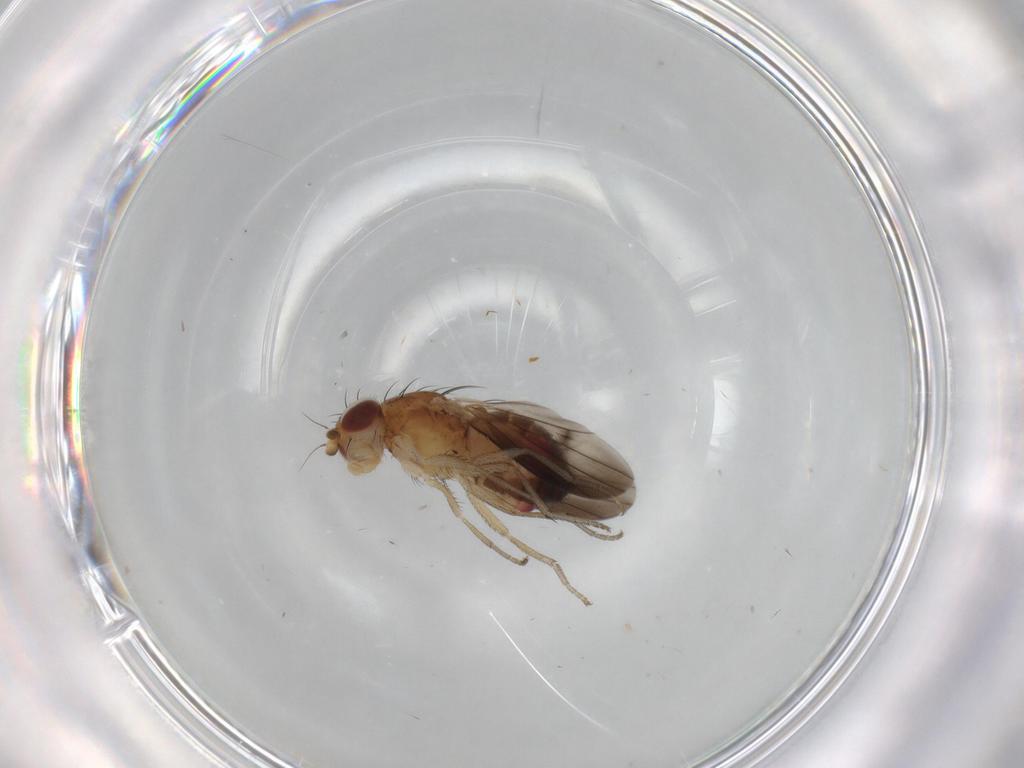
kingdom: Animalia
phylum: Arthropoda
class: Insecta
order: Diptera
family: Heleomyzidae
